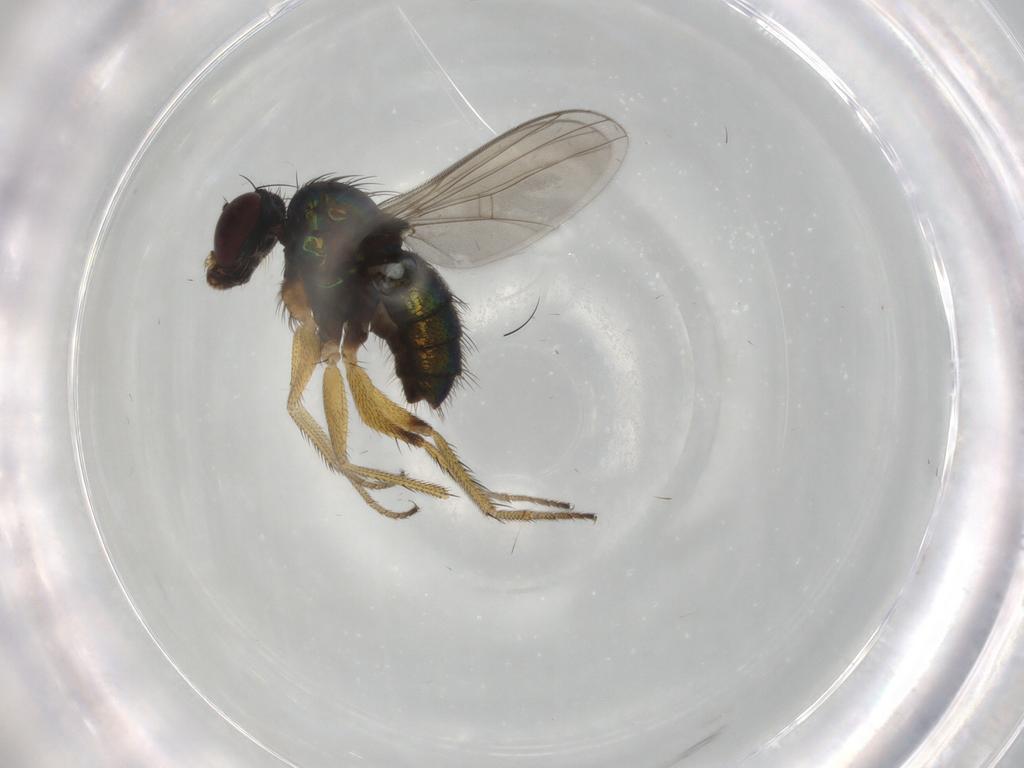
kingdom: Animalia
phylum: Arthropoda
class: Insecta
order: Diptera
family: Dolichopodidae
